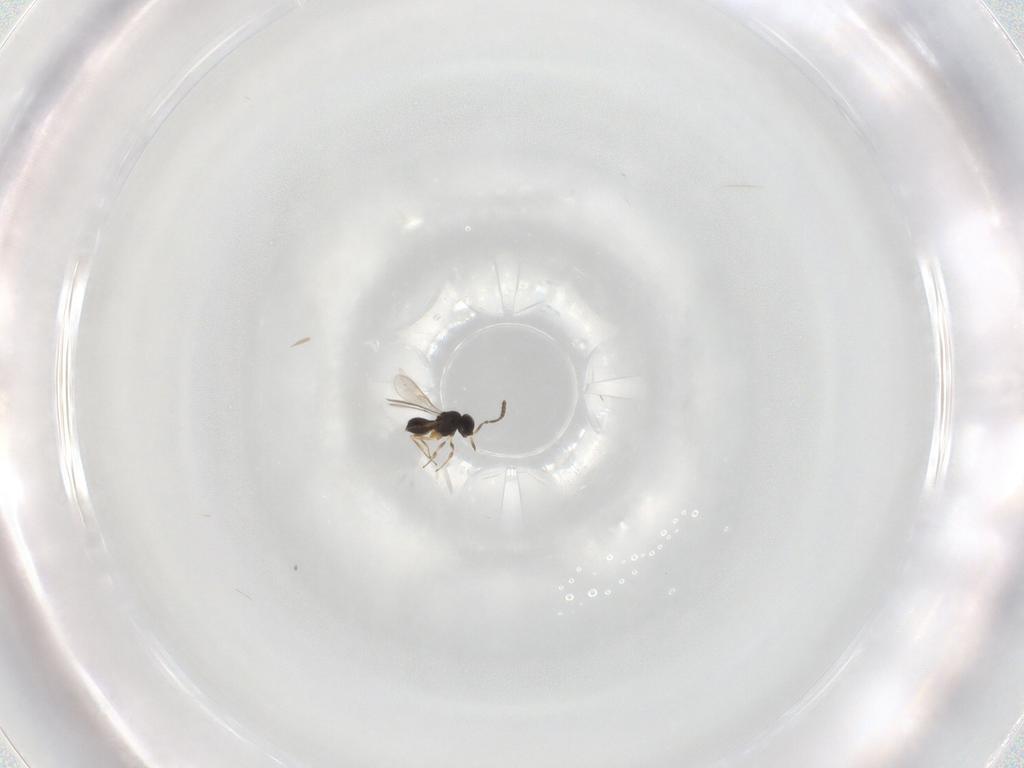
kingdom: Animalia
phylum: Arthropoda
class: Insecta
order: Hymenoptera
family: Scelionidae
